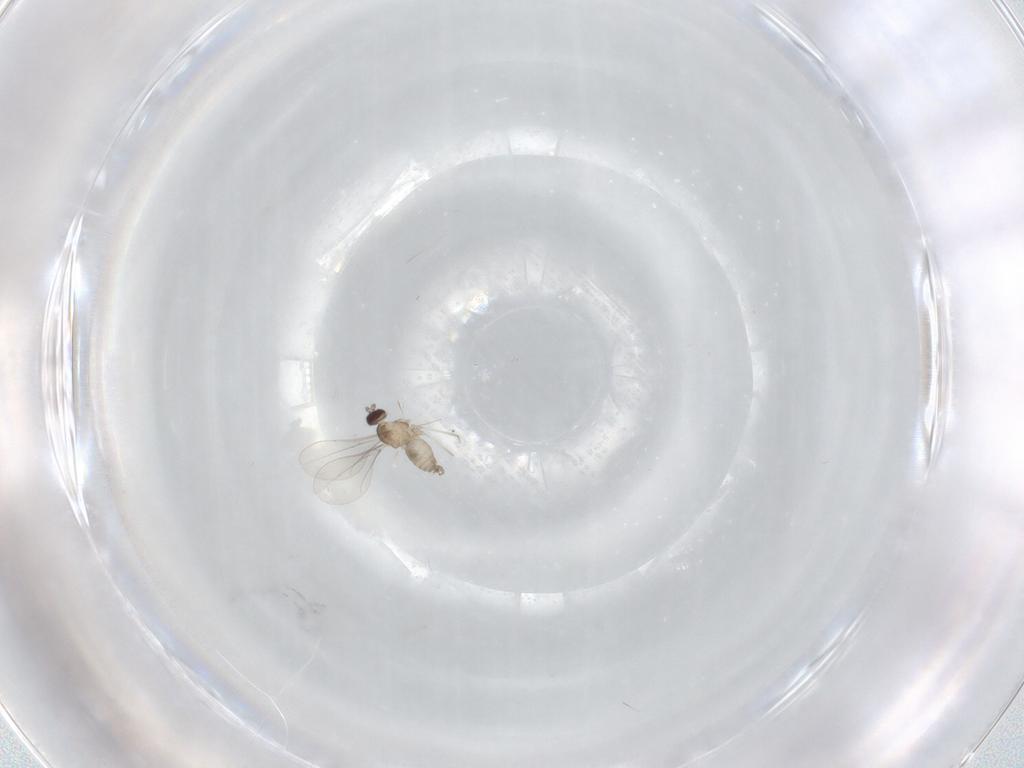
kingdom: Animalia
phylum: Arthropoda
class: Insecta
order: Diptera
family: Cecidomyiidae
